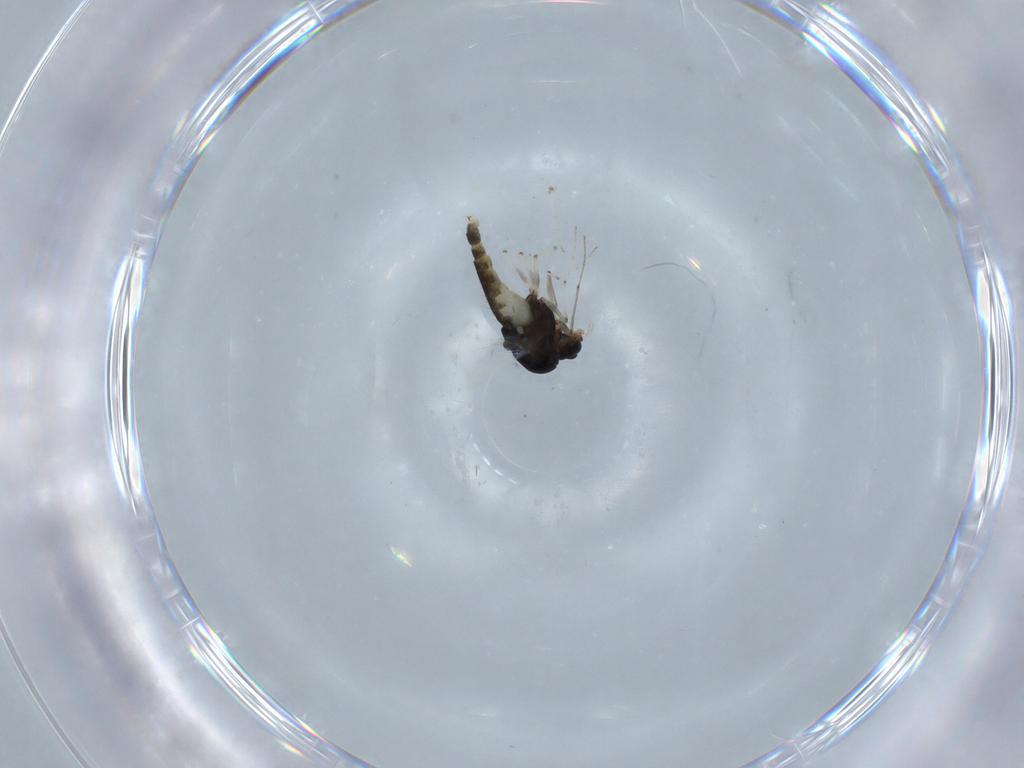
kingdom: Animalia
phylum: Arthropoda
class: Insecta
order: Diptera
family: Chironomidae
